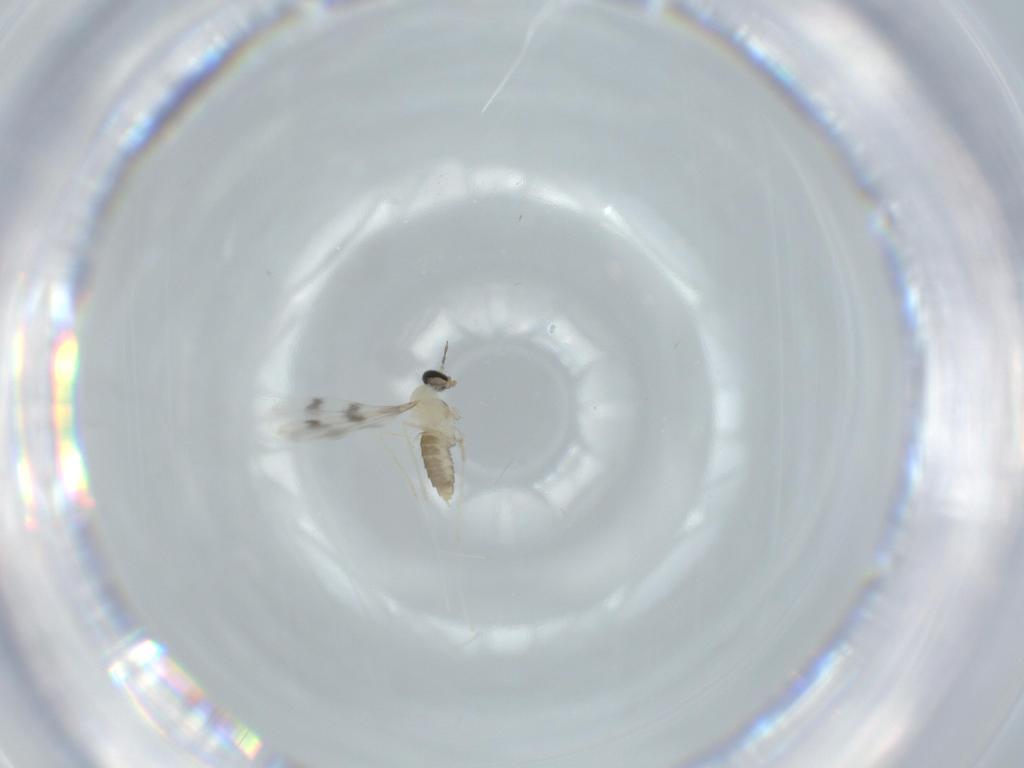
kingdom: Animalia
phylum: Arthropoda
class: Insecta
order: Diptera
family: Cecidomyiidae
